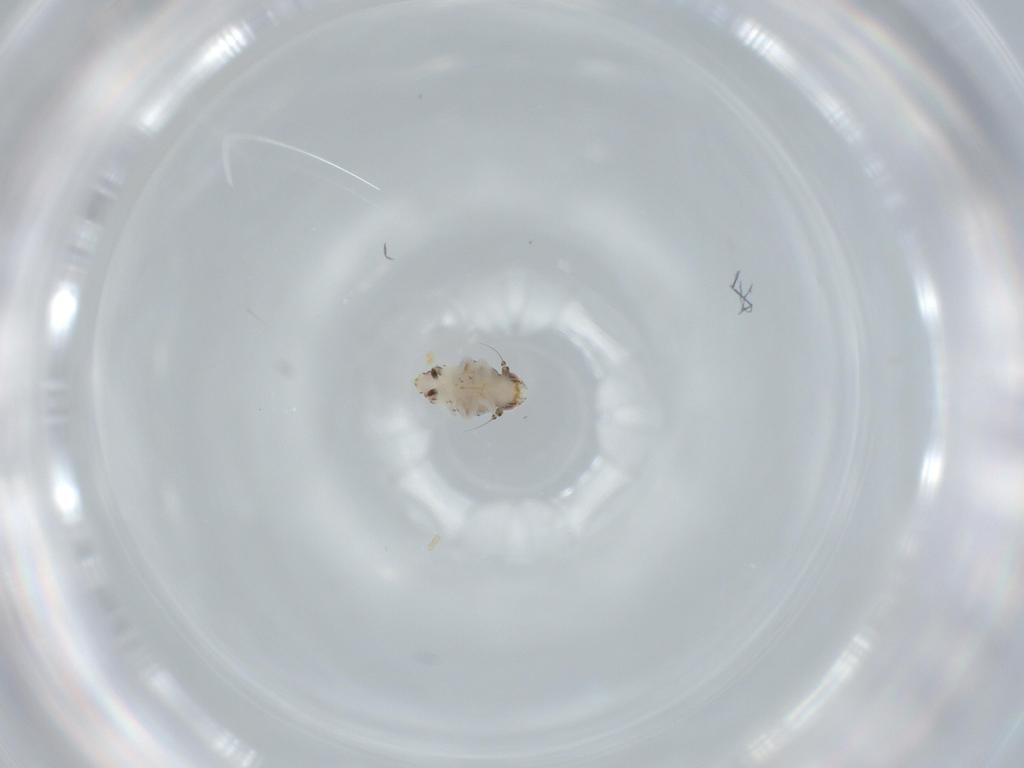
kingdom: Animalia
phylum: Arthropoda
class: Insecta
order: Hemiptera
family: Nogodinidae
